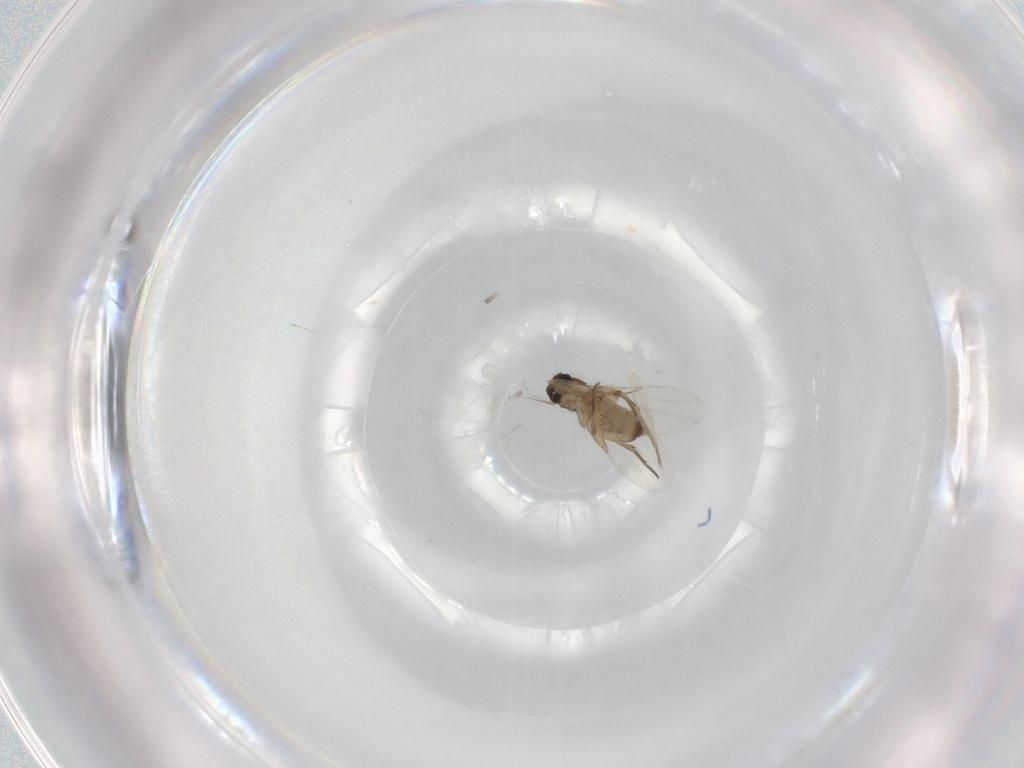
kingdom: Animalia
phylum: Arthropoda
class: Insecta
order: Diptera
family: Phoridae
